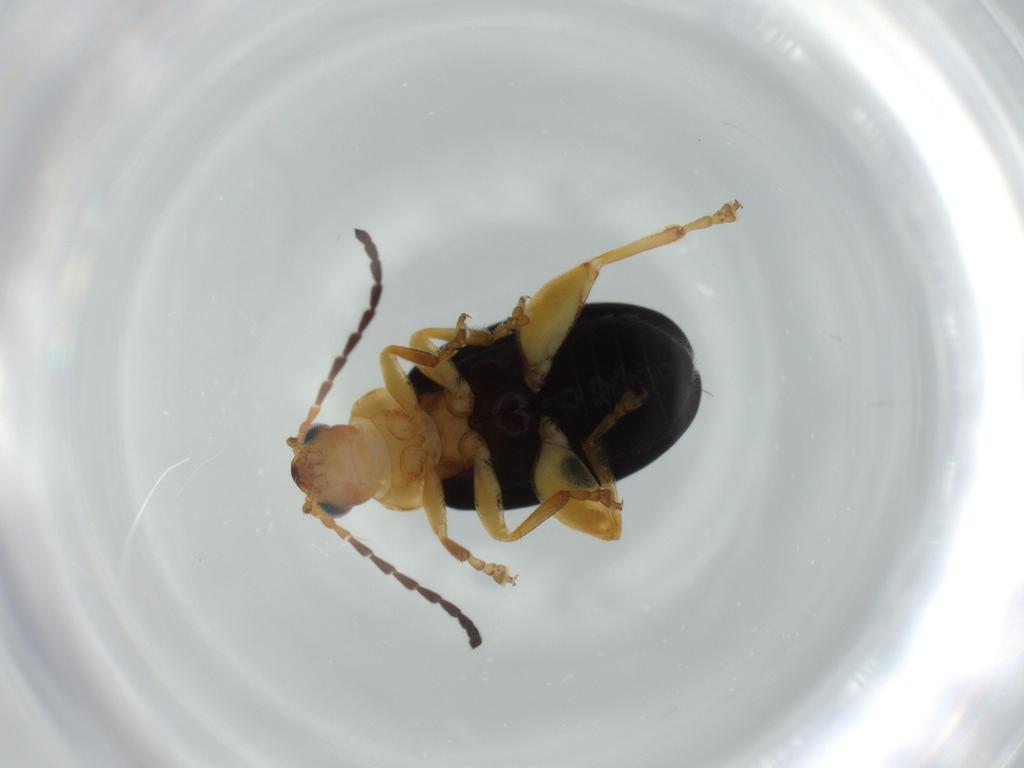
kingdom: Animalia
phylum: Arthropoda
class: Insecta
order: Coleoptera
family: Chrysomelidae
